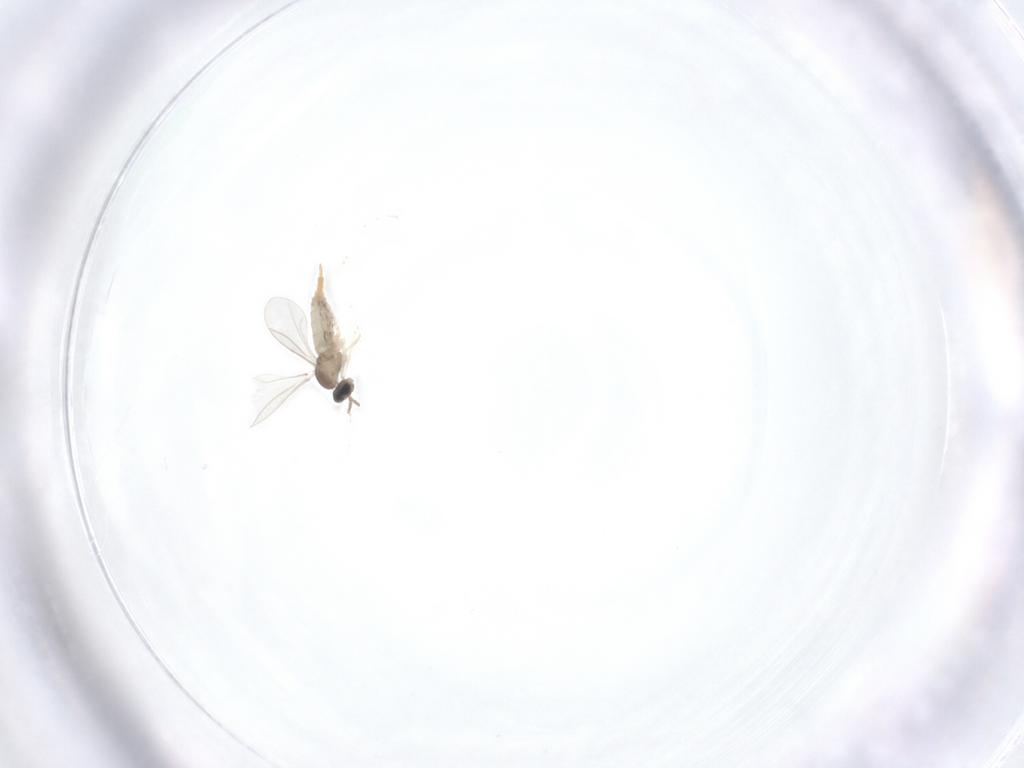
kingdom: Animalia
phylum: Arthropoda
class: Insecta
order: Diptera
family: Cecidomyiidae
